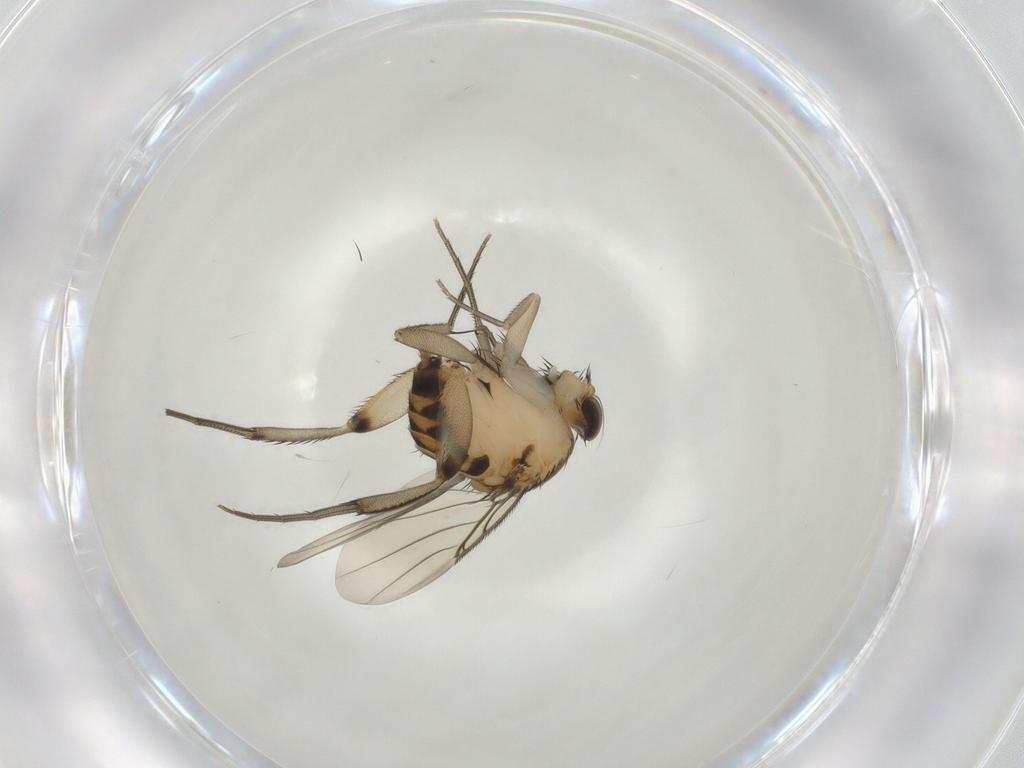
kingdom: Animalia
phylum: Arthropoda
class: Insecta
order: Diptera
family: Phoridae
